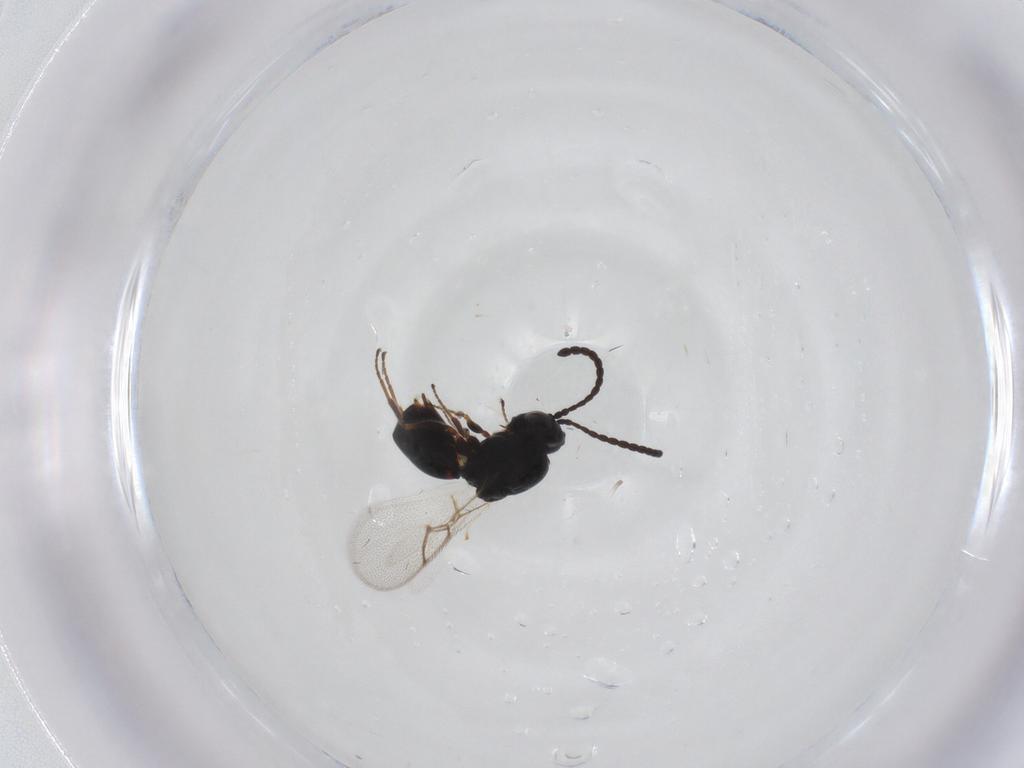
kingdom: Animalia
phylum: Arthropoda
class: Insecta
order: Hymenoptera
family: Figitidae
